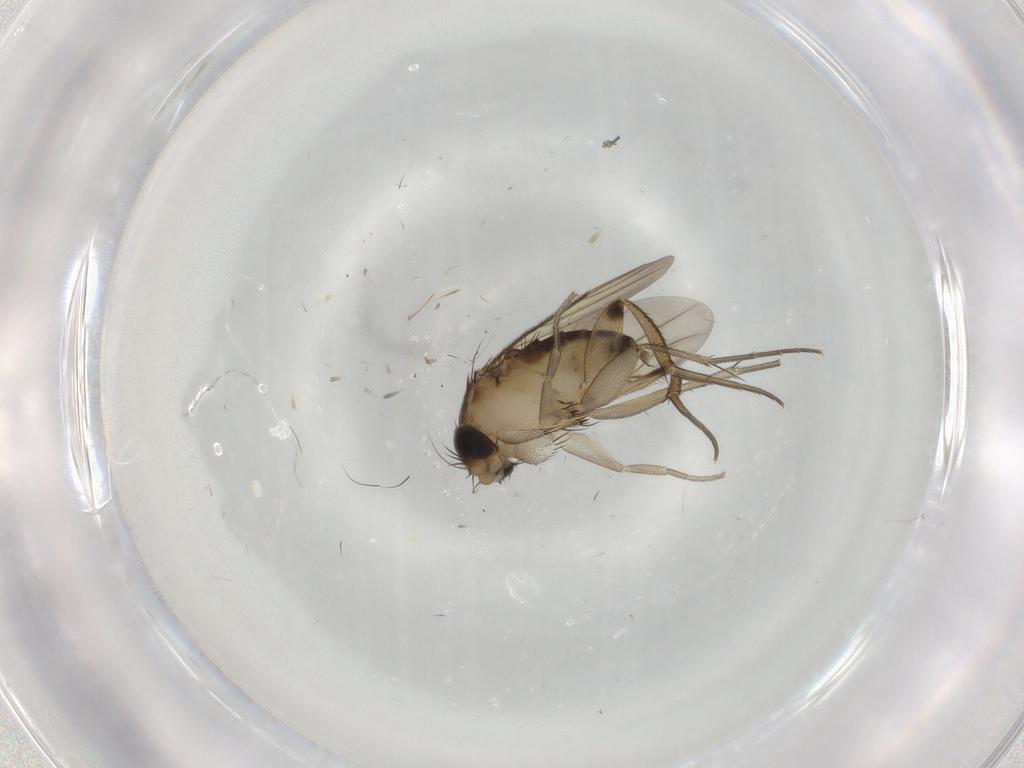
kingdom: Animalia
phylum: Arthropoda
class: Insecta
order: Diptera
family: Phoridae
